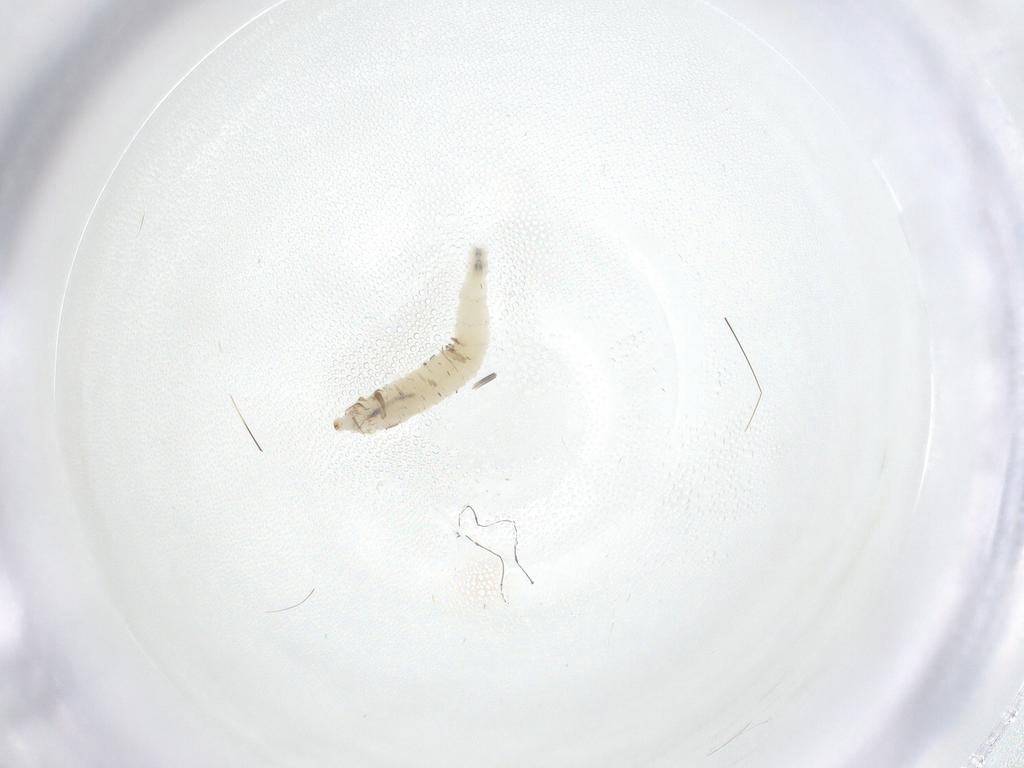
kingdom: Animalia
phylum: Arthropoda
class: Insecta
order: Diptera
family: Drosophilidae
